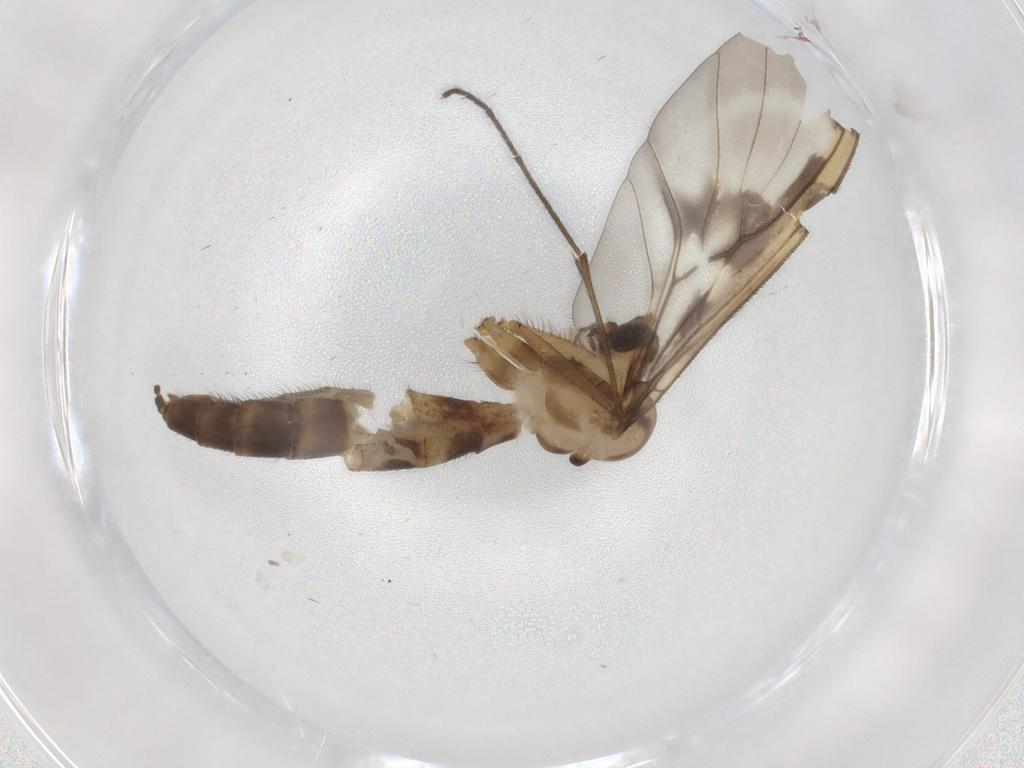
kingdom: Animalia
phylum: Arthropoda
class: Insecta
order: Diptera
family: Keroplatidae
